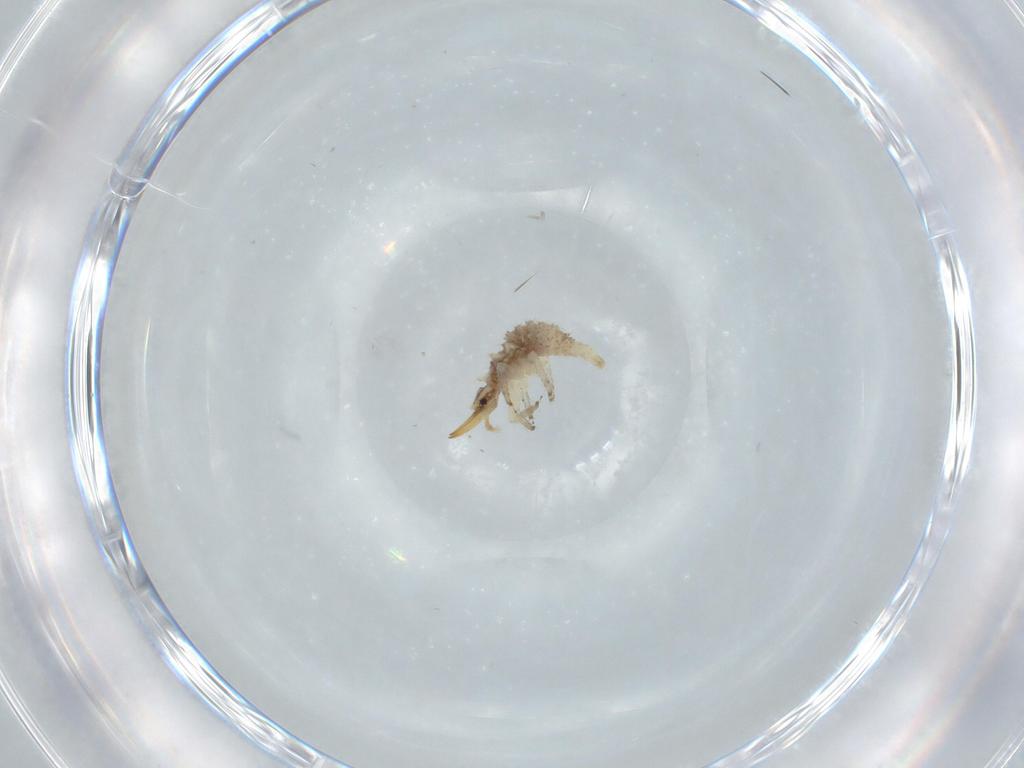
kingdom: Animalia
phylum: Arthropoda
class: Insecta
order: Neuroptera
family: Chrysopidae
